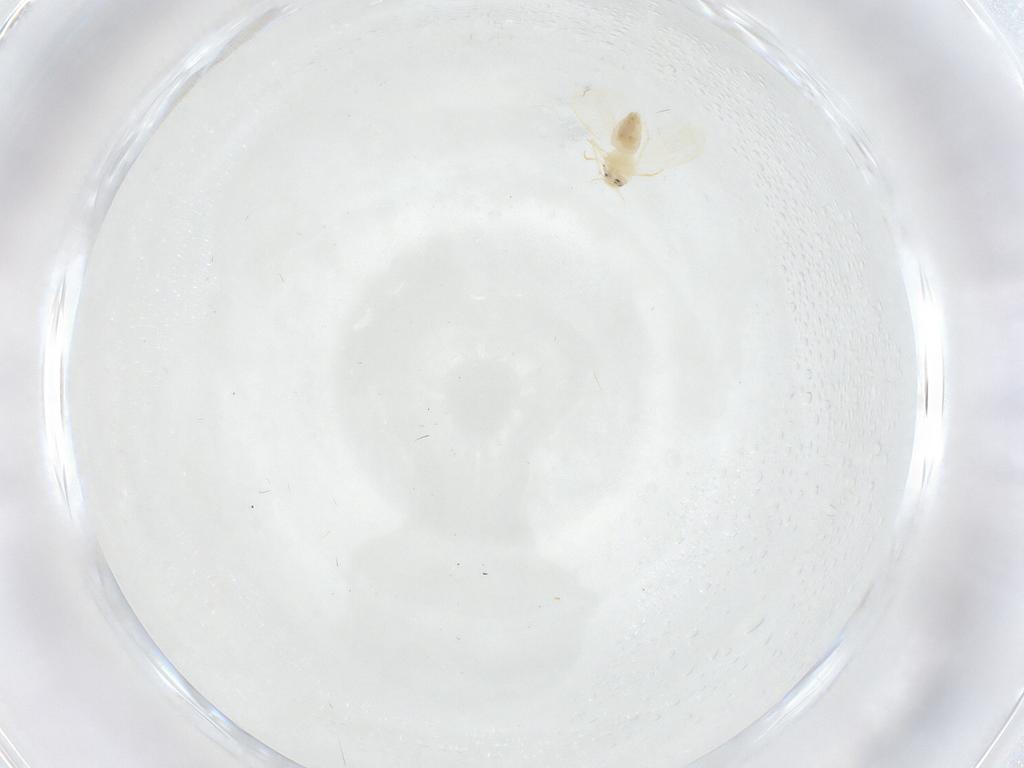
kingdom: Animalia
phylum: Arthropoda
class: Insecta
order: Hemiptera
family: Aleyrodidae
